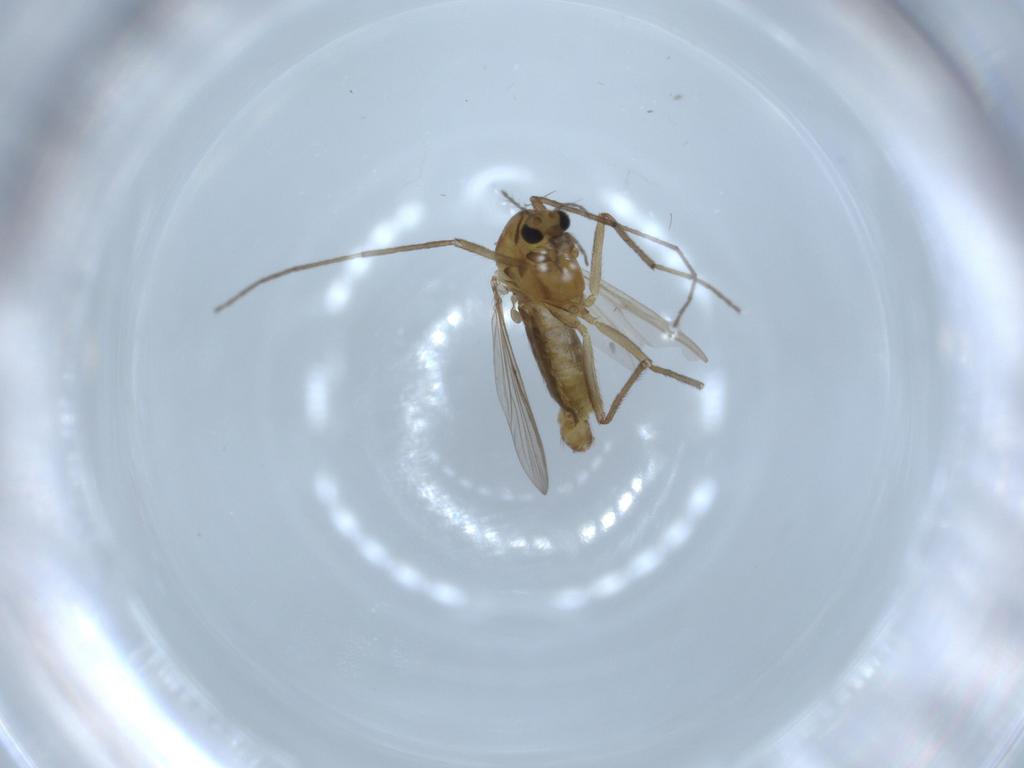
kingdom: Animalia
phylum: Arthropoda
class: Insecta
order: Diptera
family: Chironomidae
